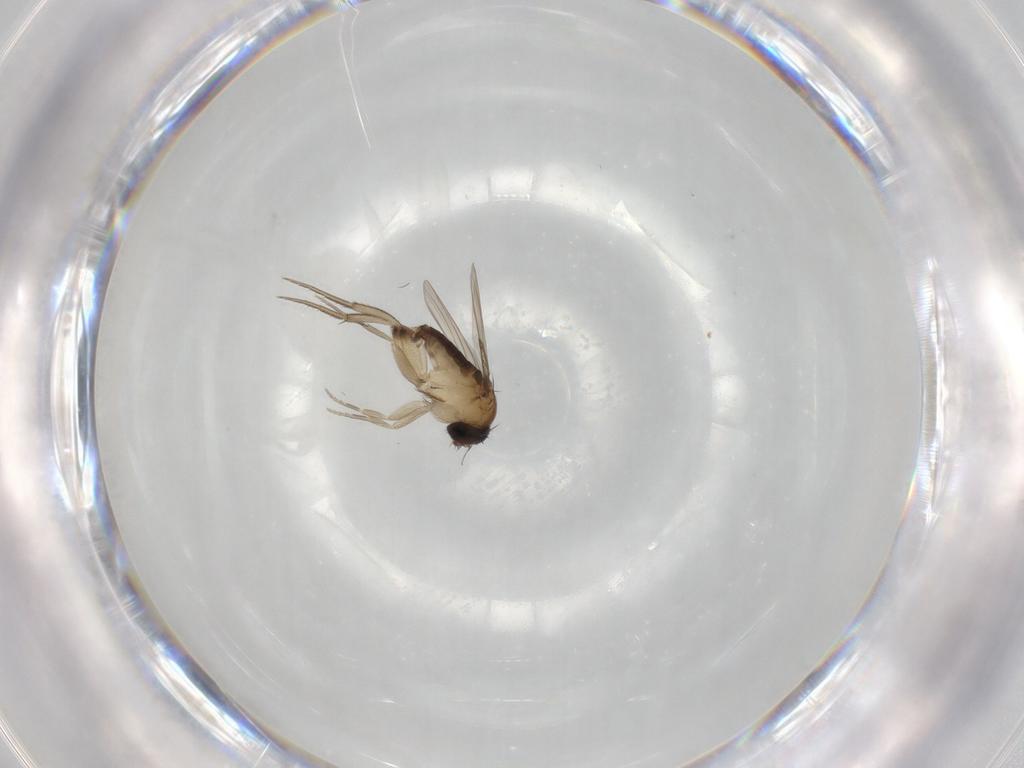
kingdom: Animalia
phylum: Arthropoda
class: Insecta
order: Diptera
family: Phoridae
